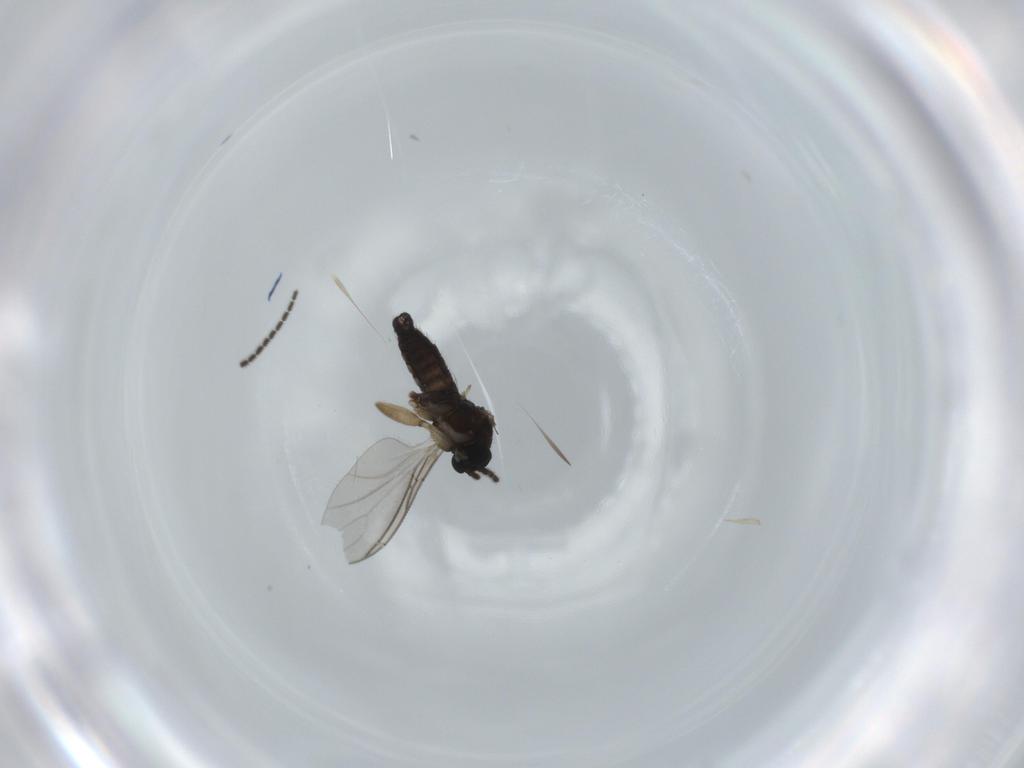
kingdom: Animalia
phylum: Arthropoda
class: Insecta
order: Diptera
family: Sciaridae
